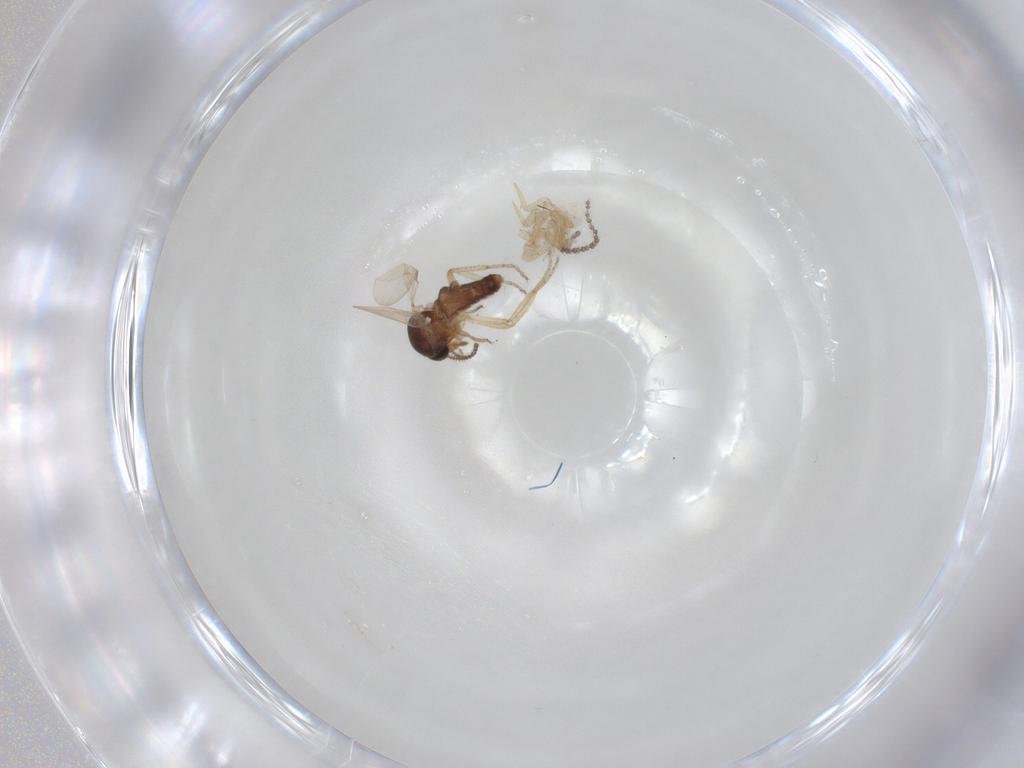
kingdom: Animalia
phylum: Arthropoda
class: Insecta
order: Diptera
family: Ceratopogonidae
